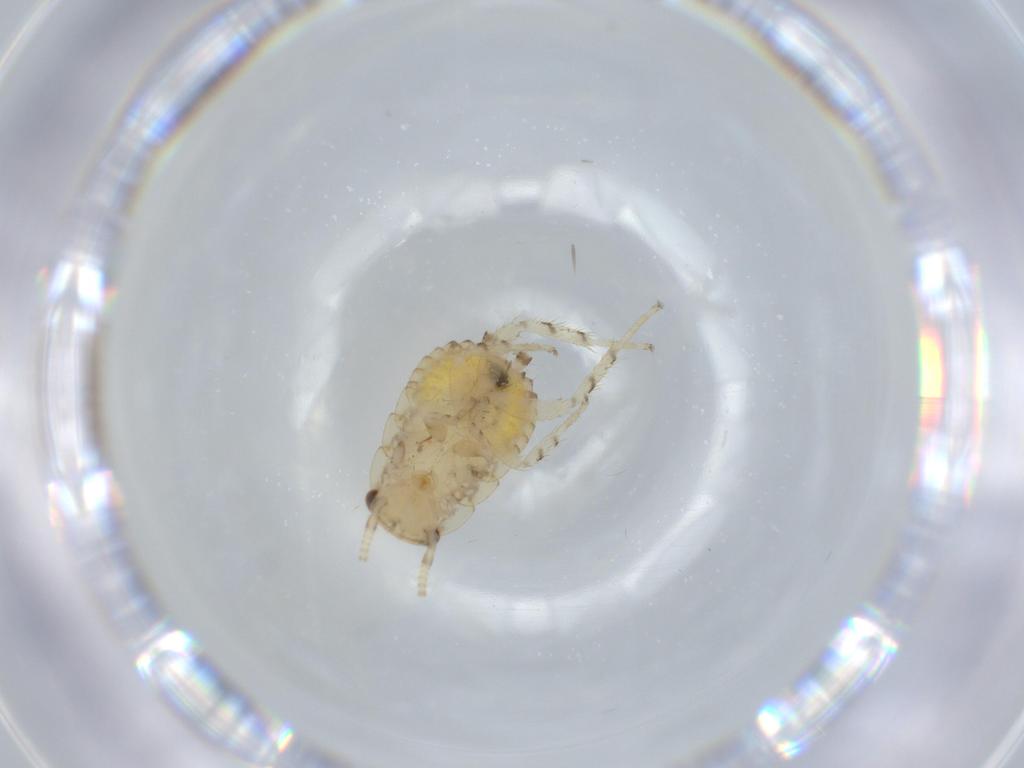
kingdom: Animalia
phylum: Arthropoda
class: Insecta
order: Blattodea
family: Ectobiidae
